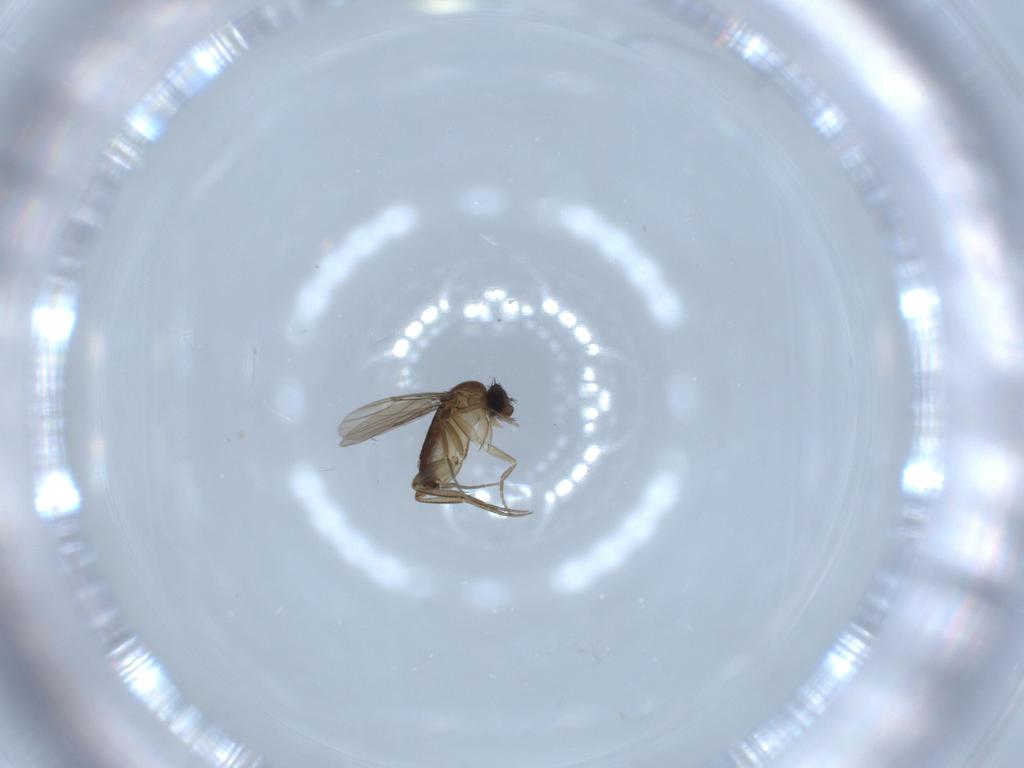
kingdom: Animalia
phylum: Arthropoda
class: Insecta
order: Diptera
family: Phoridae
